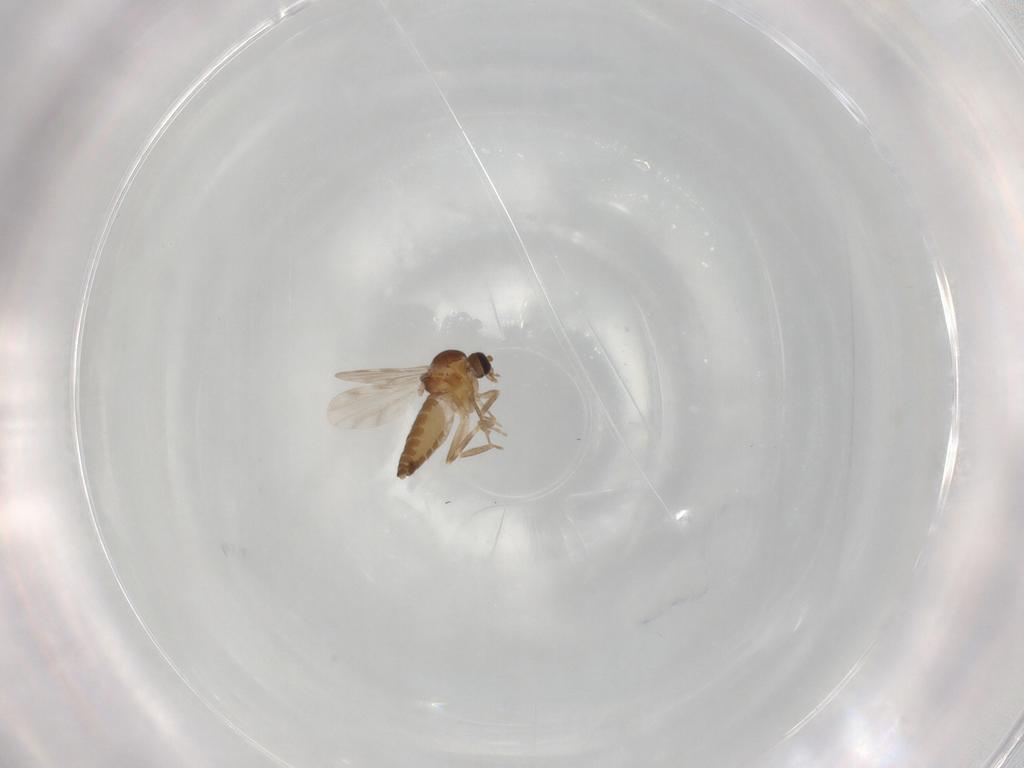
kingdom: Animalia
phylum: Arthropoda
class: Insecta
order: Diptera
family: Ceratopogonidae
